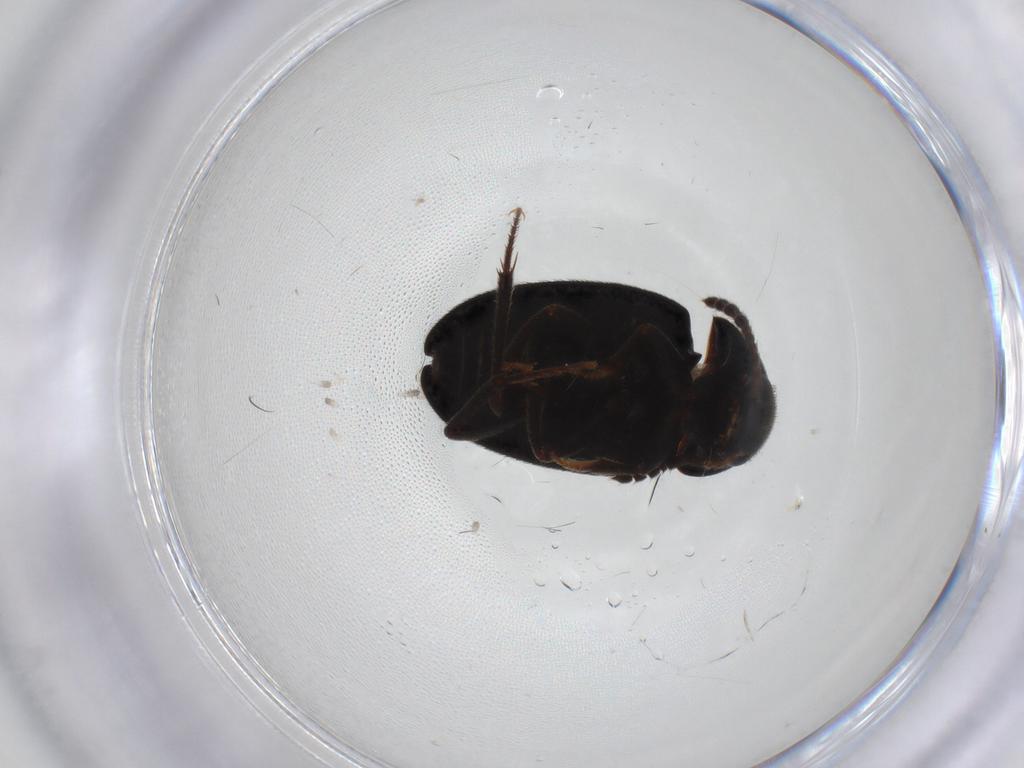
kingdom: Animalia
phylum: Arthropoda
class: Insecta
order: Coleoptera
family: Leiodidae
